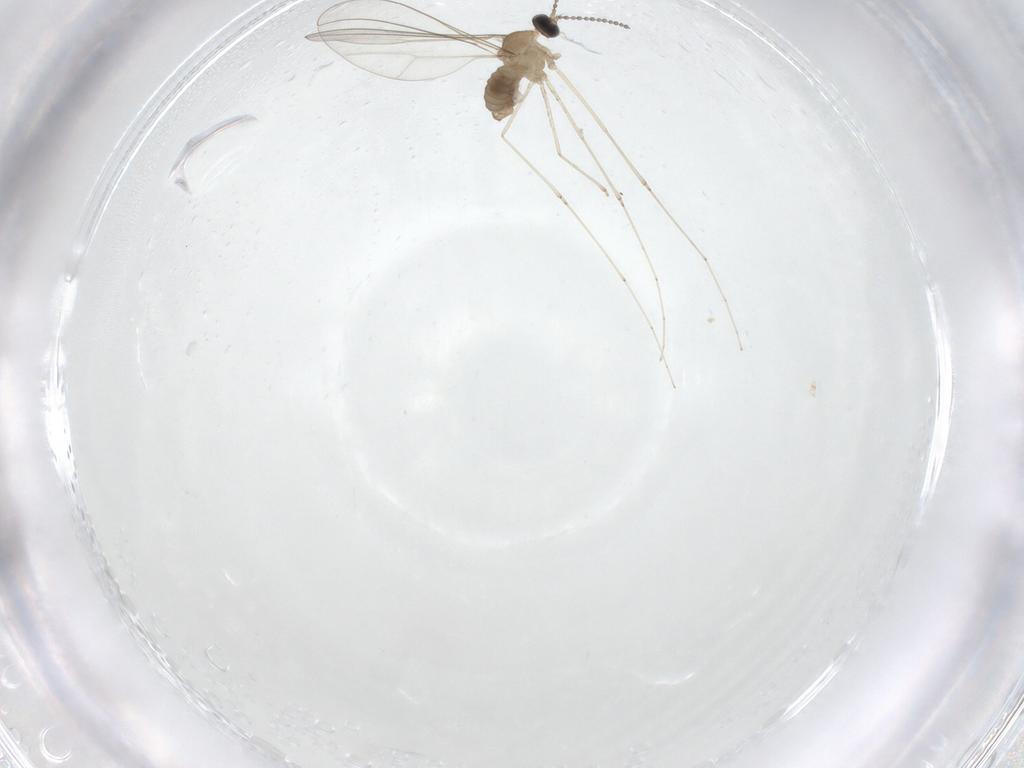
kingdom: Animalia
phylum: Arthropoda
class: Insecta
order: Diptera
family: Cecidomyiidae
